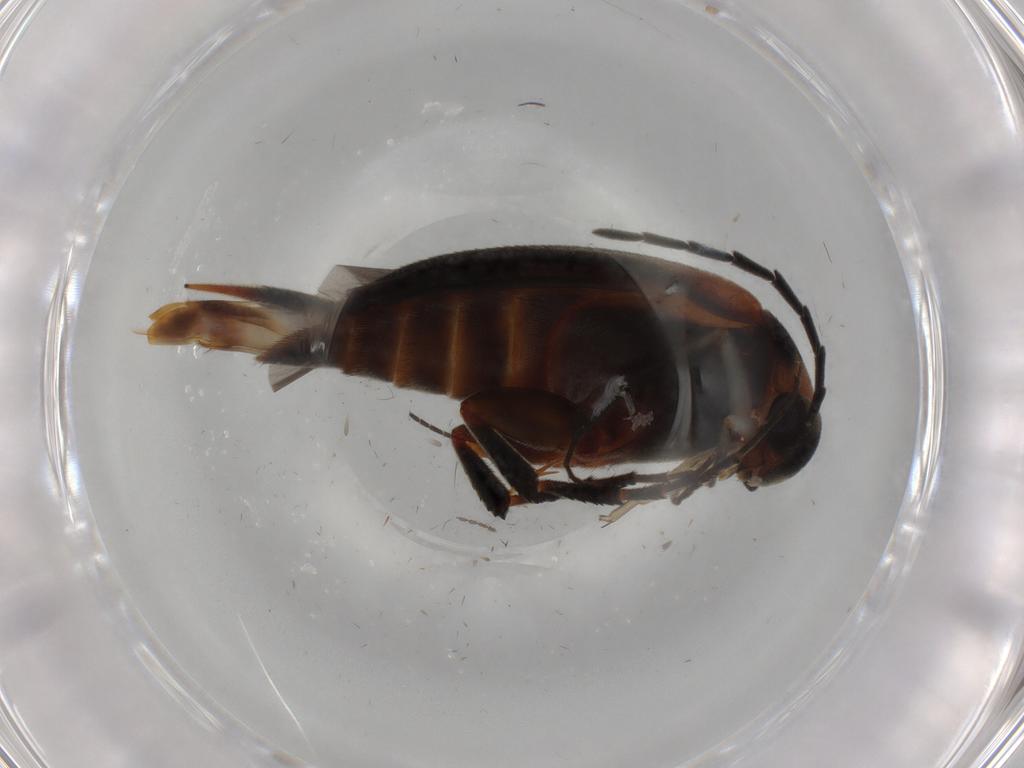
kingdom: Animalia
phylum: Arthropoda
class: Insecta
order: Coleoptera
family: Mordellidae
